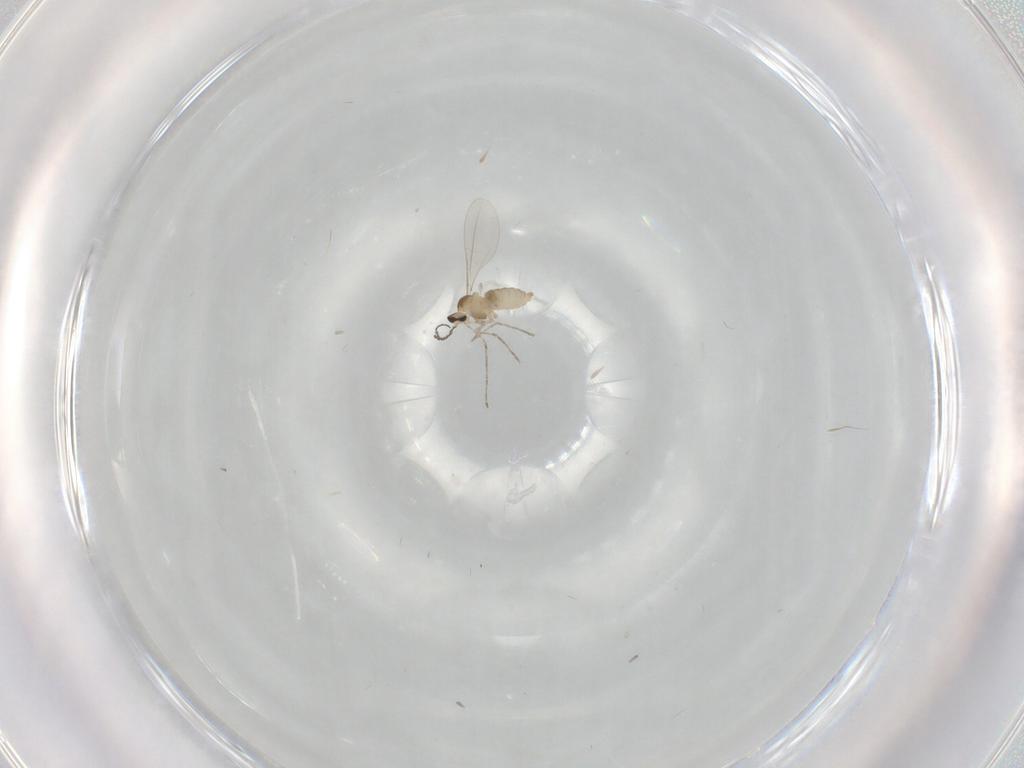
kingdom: Animalia
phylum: Arthropoda
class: Insecta
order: Diptera
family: Cecidomyiidae
